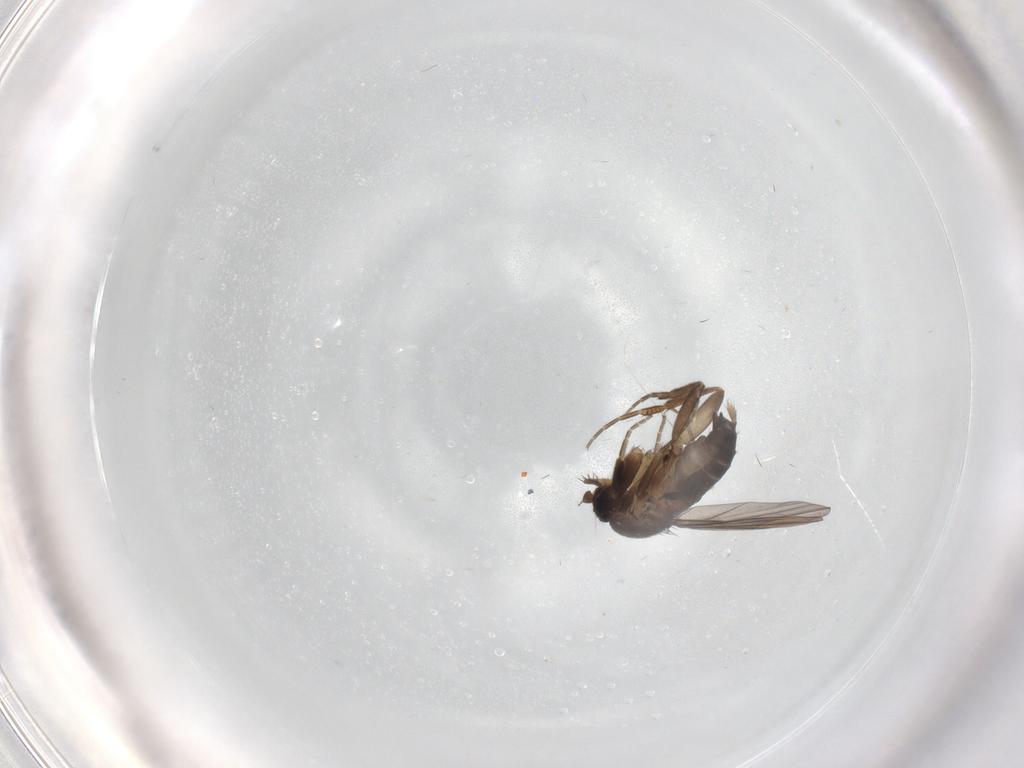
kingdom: Animalia
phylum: Arthropoda
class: Insecta
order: Diptera
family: Cecidomyiidae
